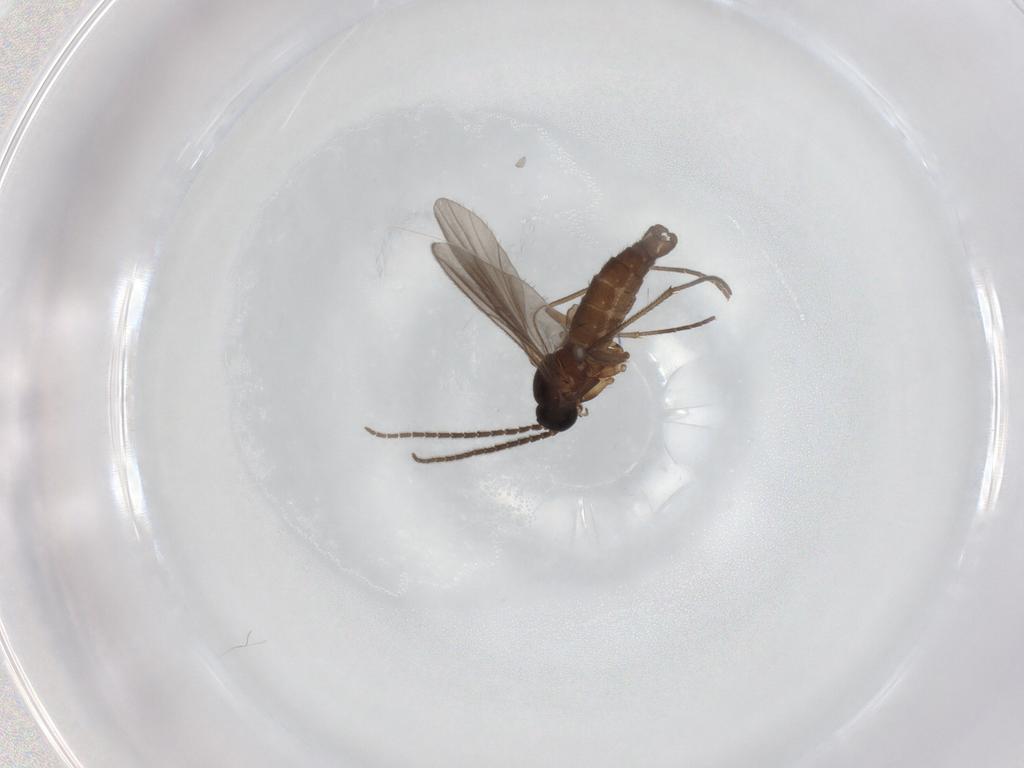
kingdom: Animalia
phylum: Arthropoda
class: Insecta
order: Diptera
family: Sciaridae
